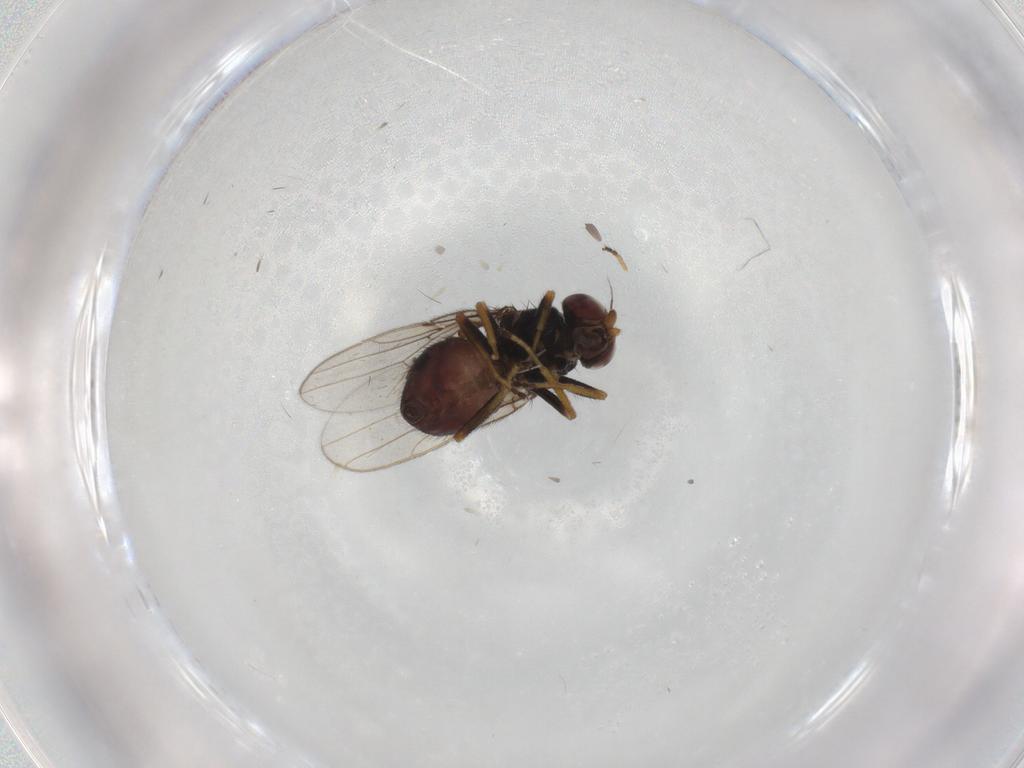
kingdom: Animalia
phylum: Arthropoda
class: Insecta
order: Diptera
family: Chloropidae
